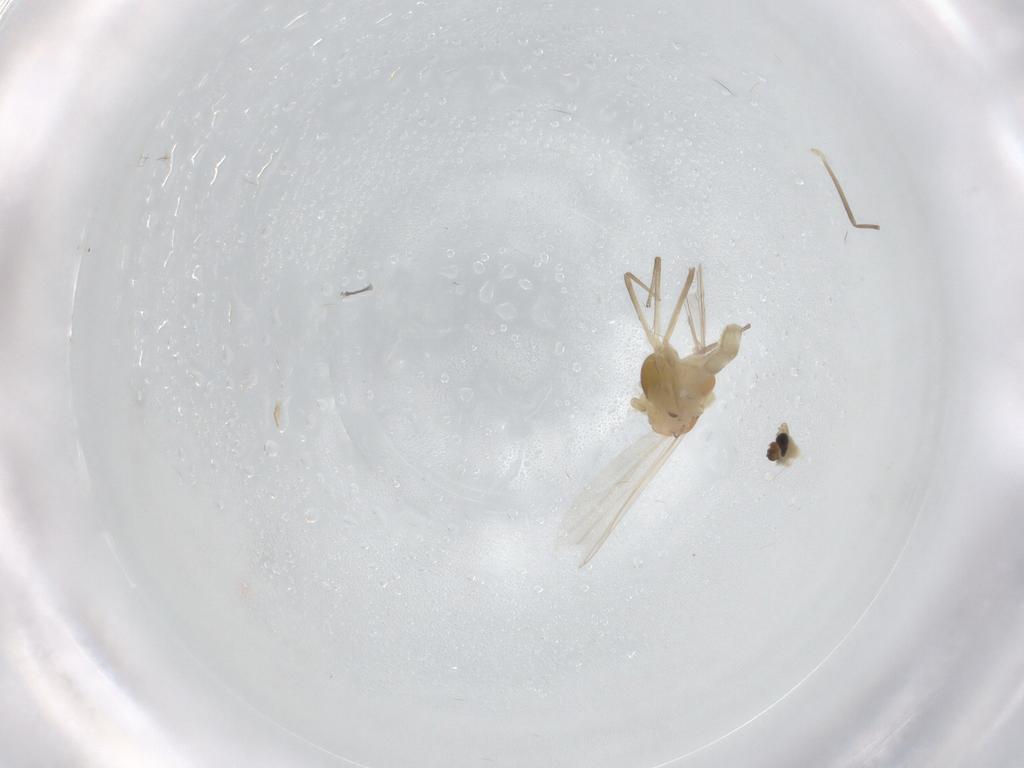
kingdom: Animalia
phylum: Arthropoda
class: Insecta
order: Diptera
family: Chironomidae
